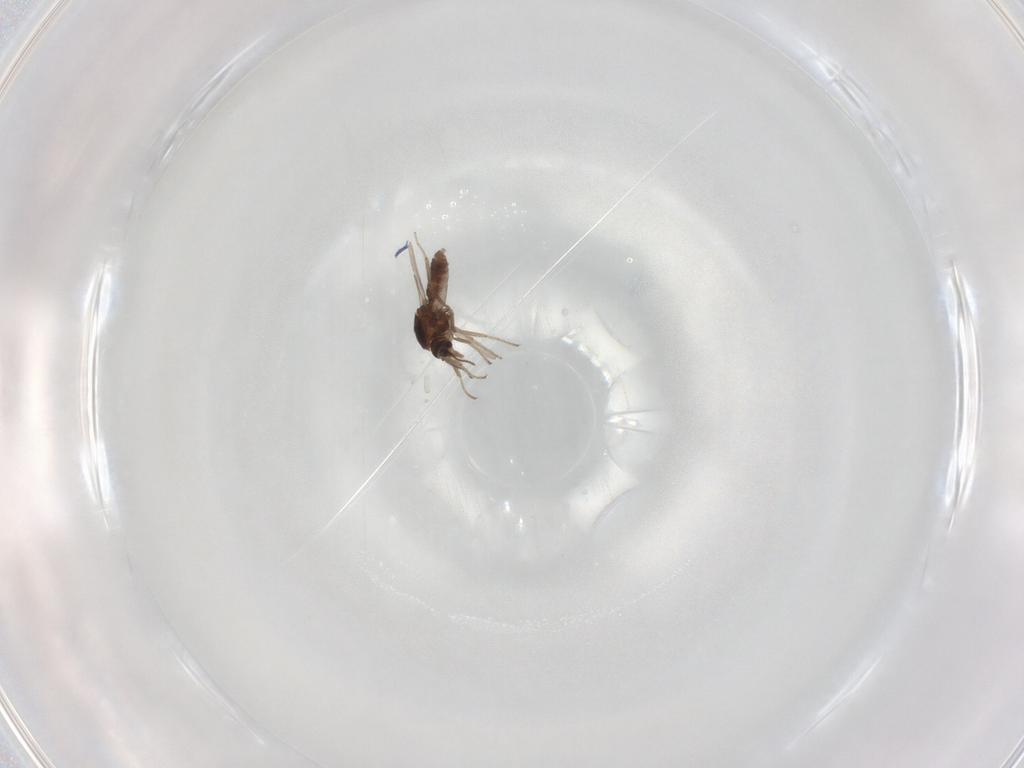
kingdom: Animalia
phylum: Arthropoda
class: Insecta
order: Diptera
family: Ceratopogonidae
